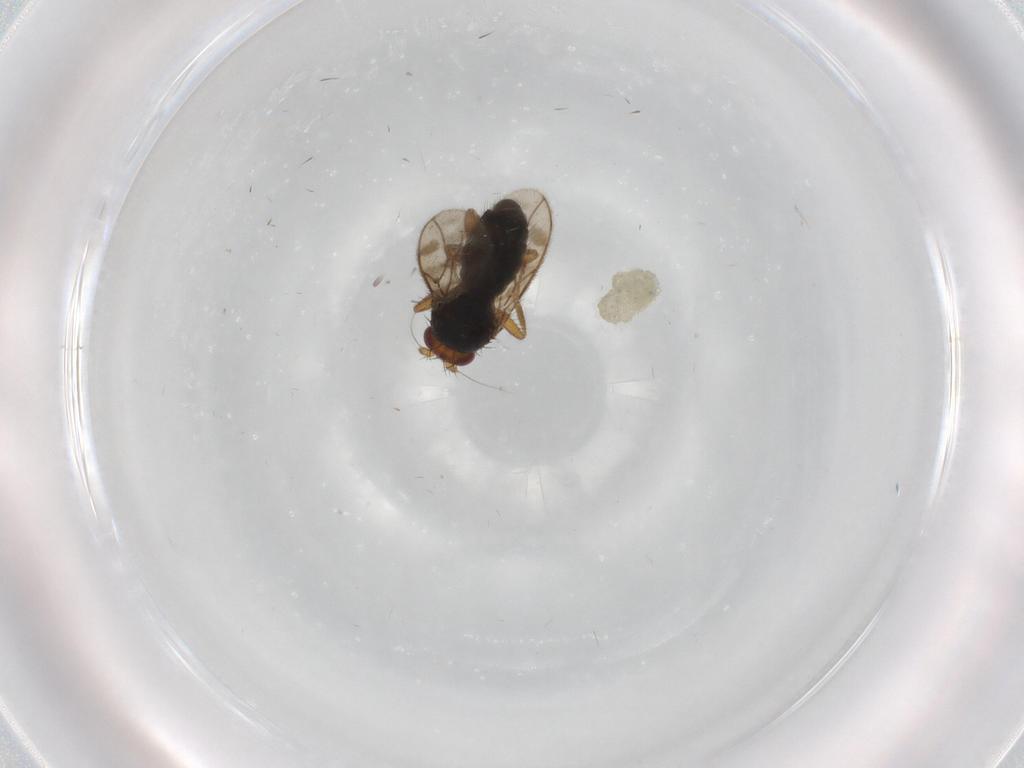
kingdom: Animalia
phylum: Arthropoda
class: Insecta
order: Diptera
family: Sphaeroceridae
